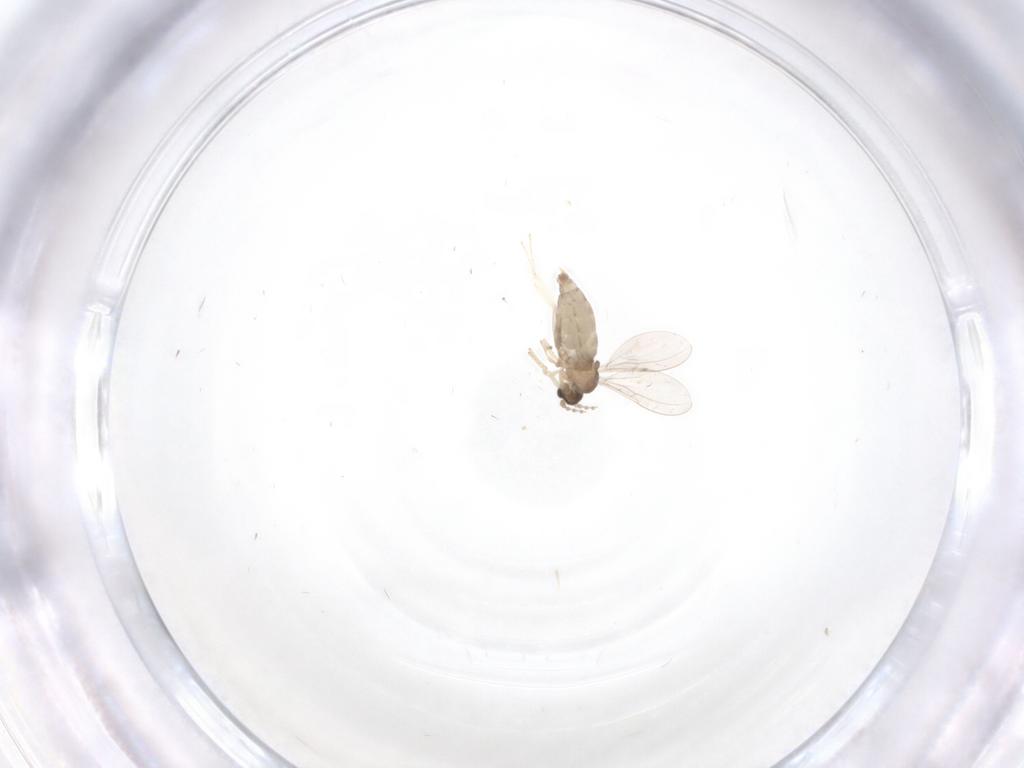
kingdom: Animalia
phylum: Arthropoda
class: Insecta
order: Diptera
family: Cecidomyiidae
